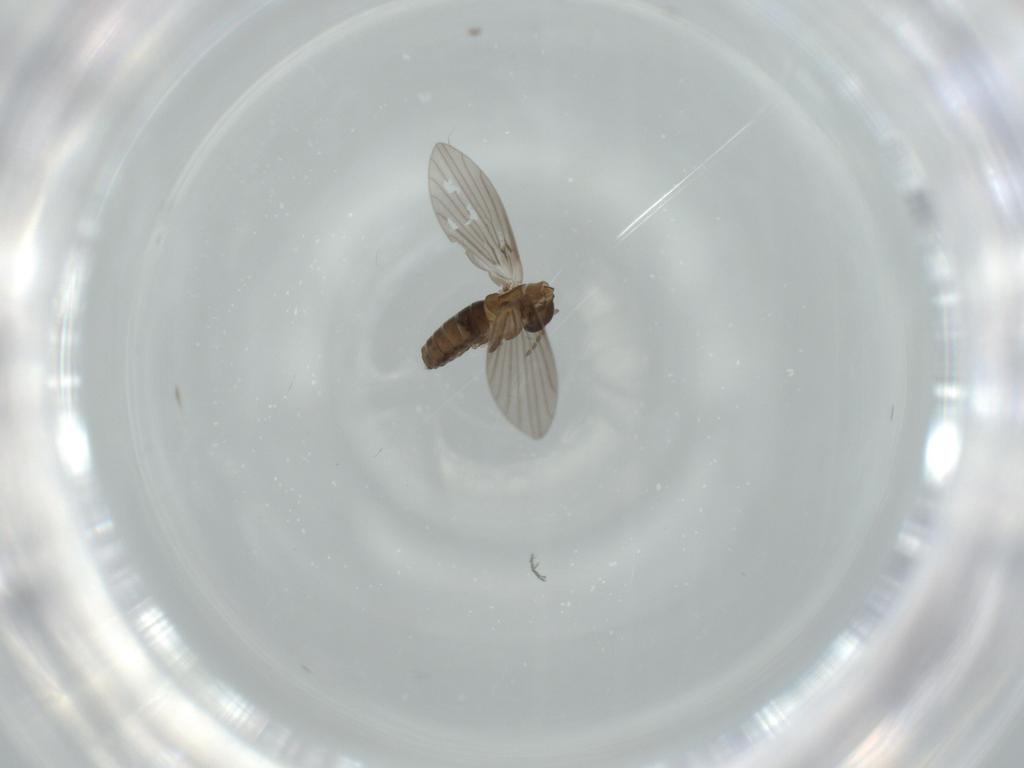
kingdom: Animalia
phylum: Arthropoda
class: Insecta
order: Diptera
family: Psychodidae
